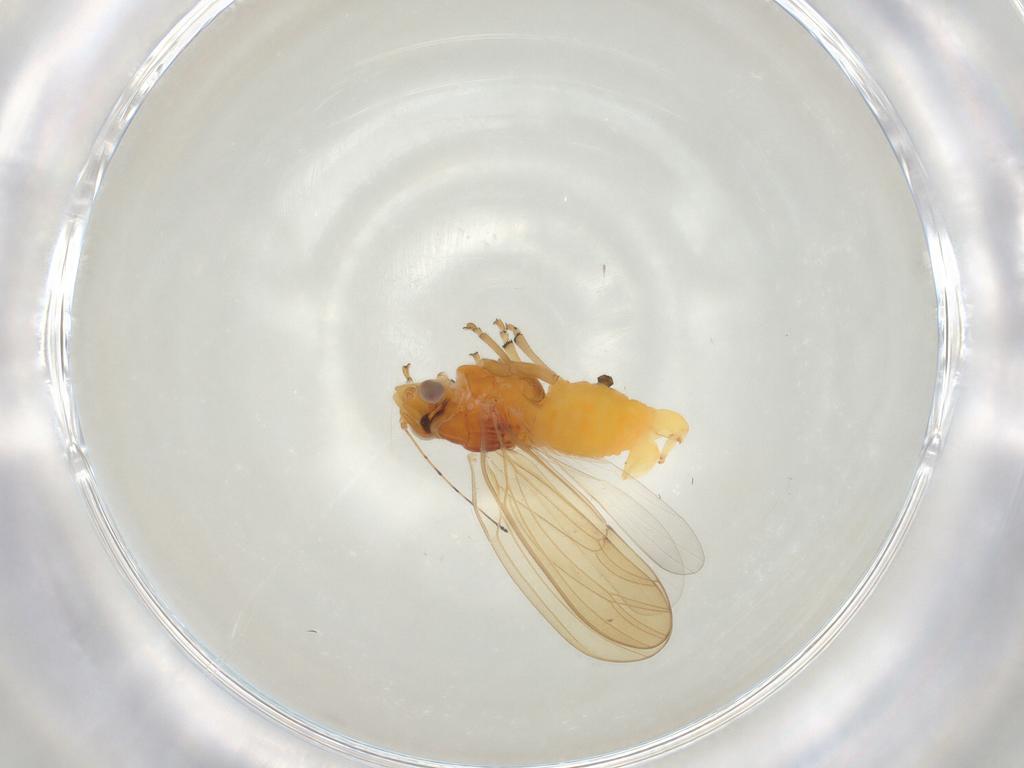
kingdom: Animalia
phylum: Arthropoda
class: Insecta
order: Hemiptera
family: Psylloidea_incertae_sedis
